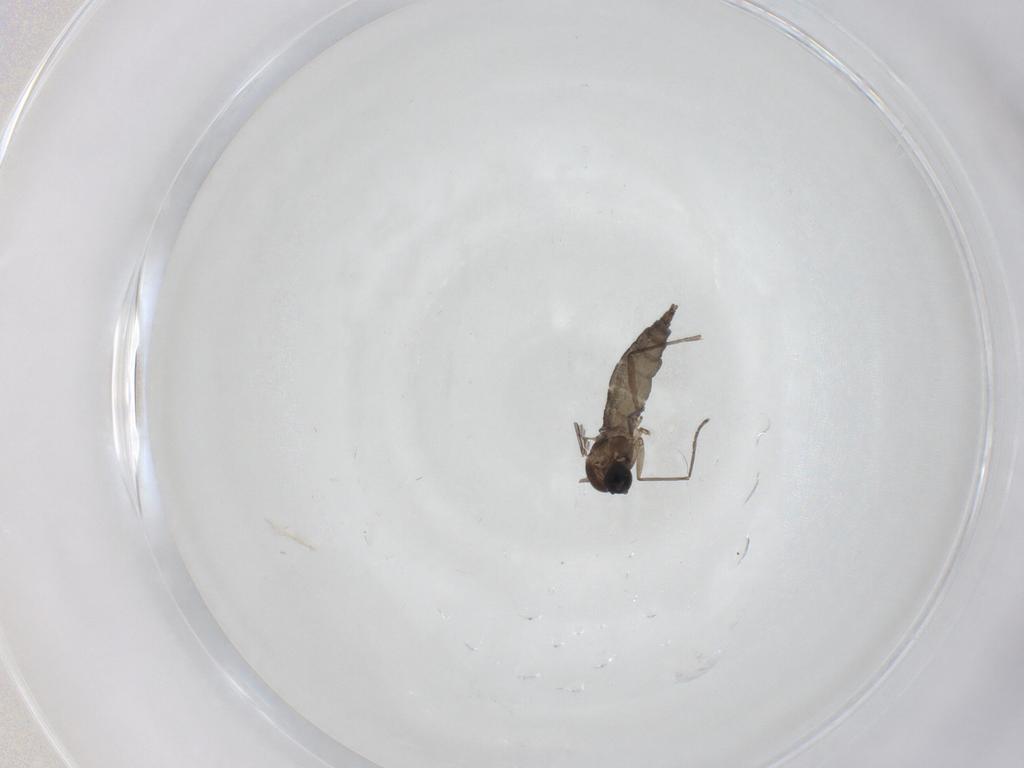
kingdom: Animalia
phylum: Arthropoda
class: Insecta
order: Diptera
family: Sciaridae
